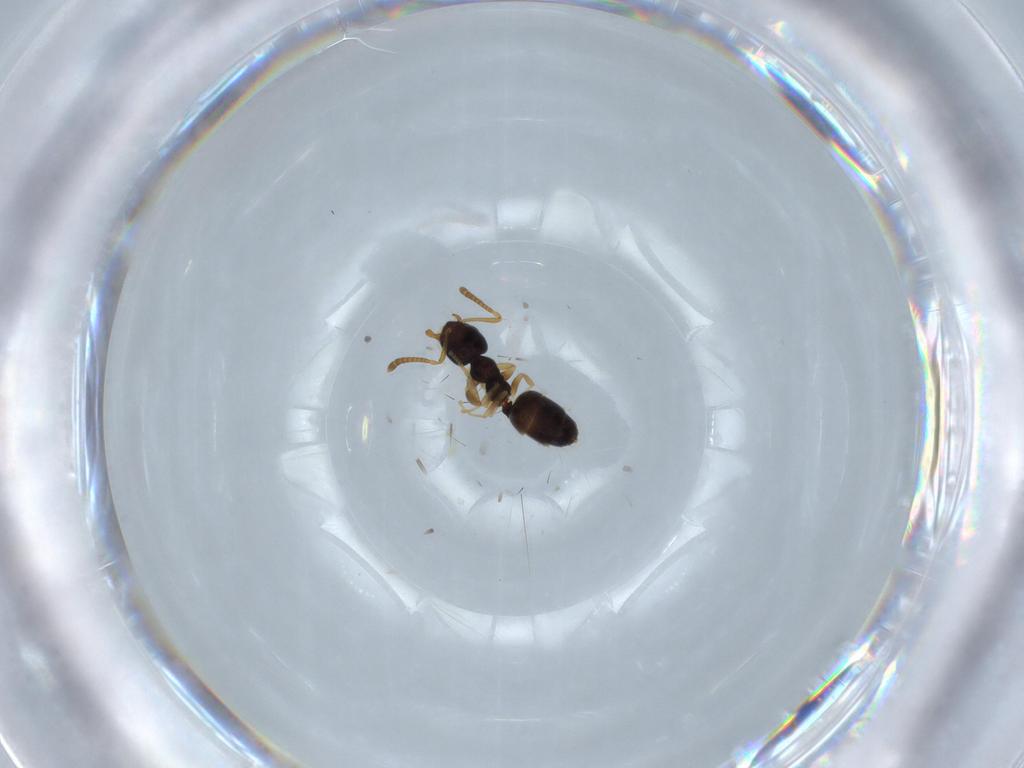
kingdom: Animalia
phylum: Arthropoda
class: Insecta
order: Hymenoptera
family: Formicidae
